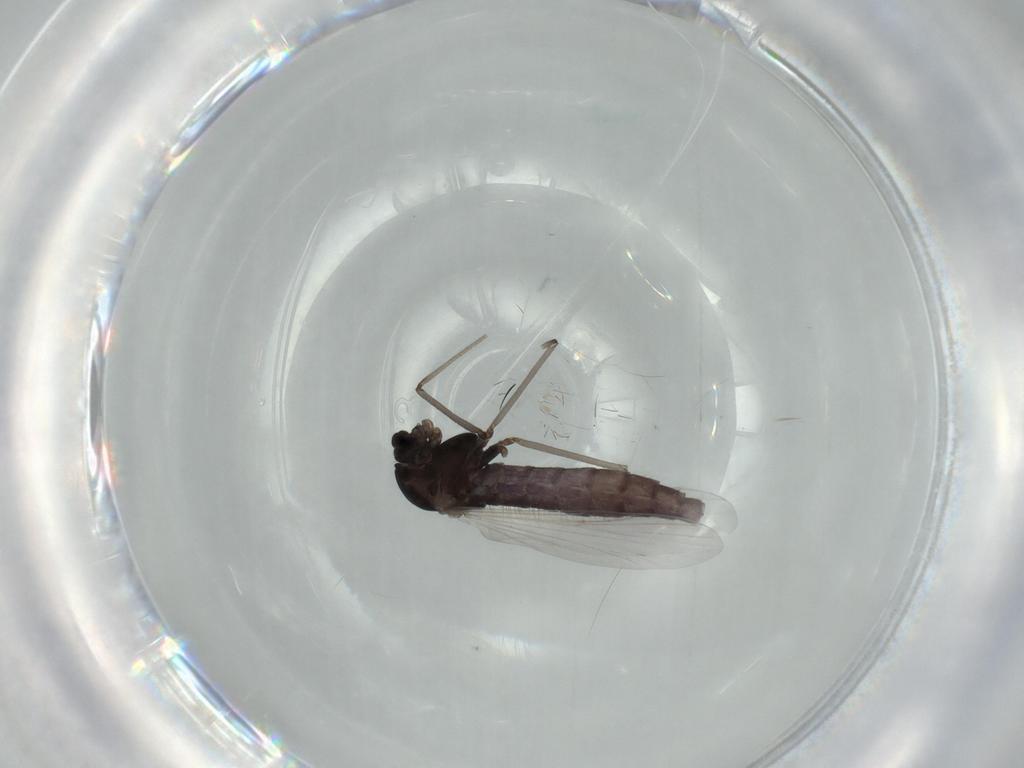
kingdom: Animalia
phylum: Arthropoda
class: Insecta
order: Diptera
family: Chironomidae
